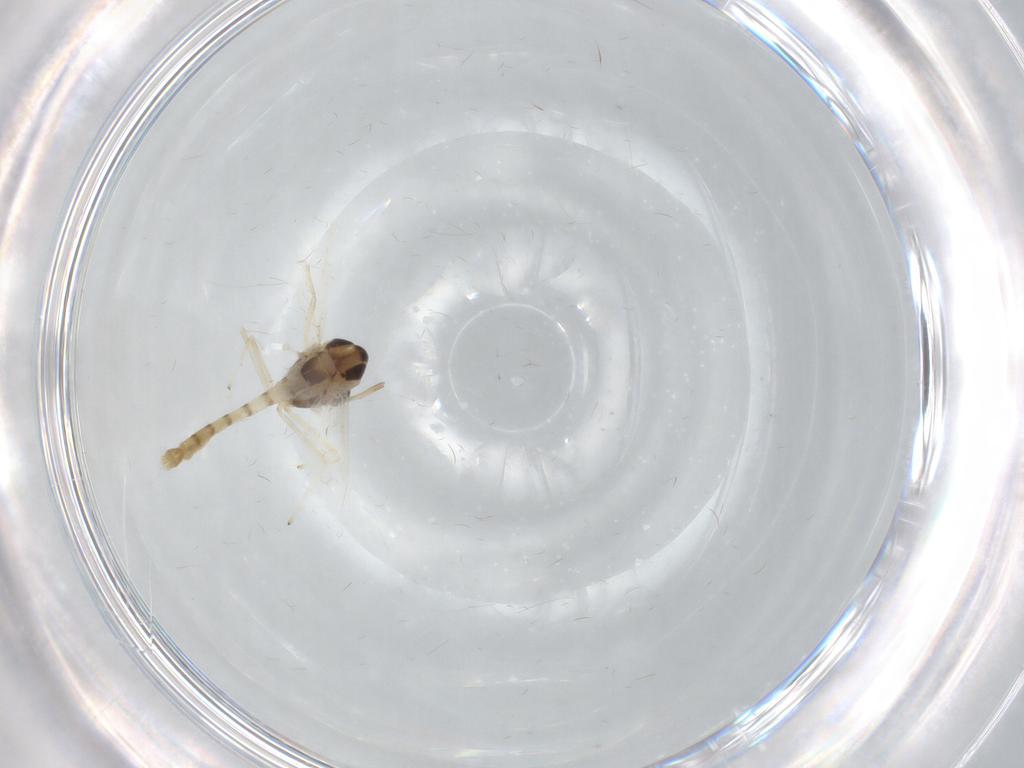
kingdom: Animalia
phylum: Arthropoda
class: Insecta
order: Diptera
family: Chironomidae
